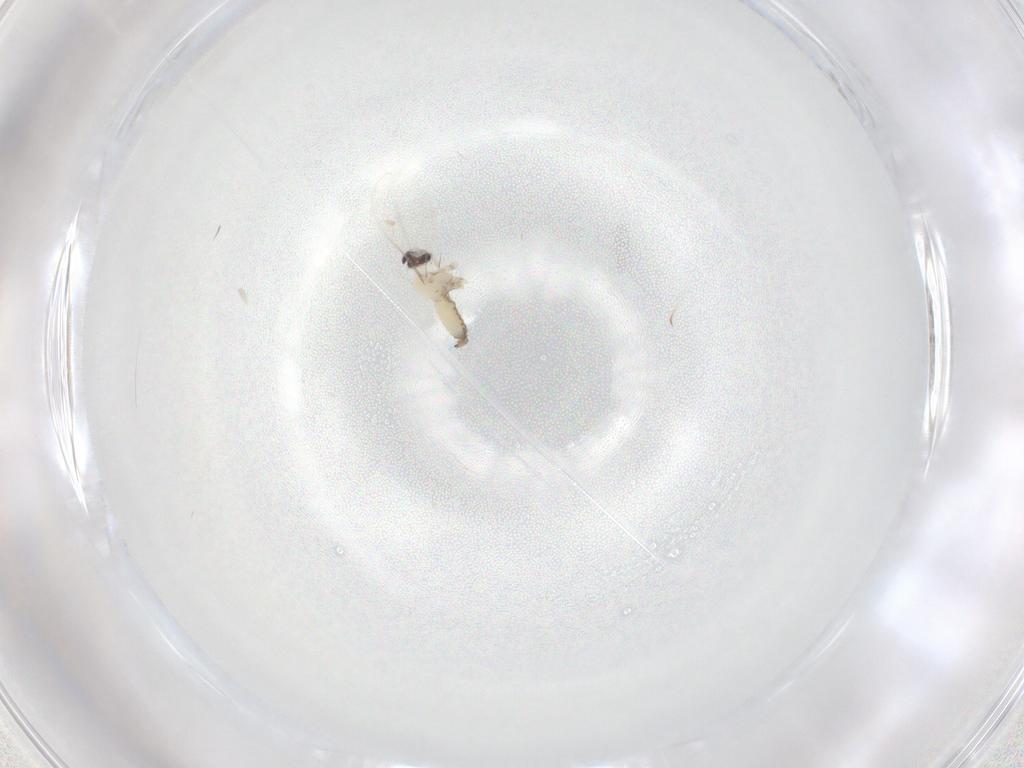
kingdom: Animalia
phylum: Arthropoda
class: Insecta
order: Diptera
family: Cecidomyiidae
